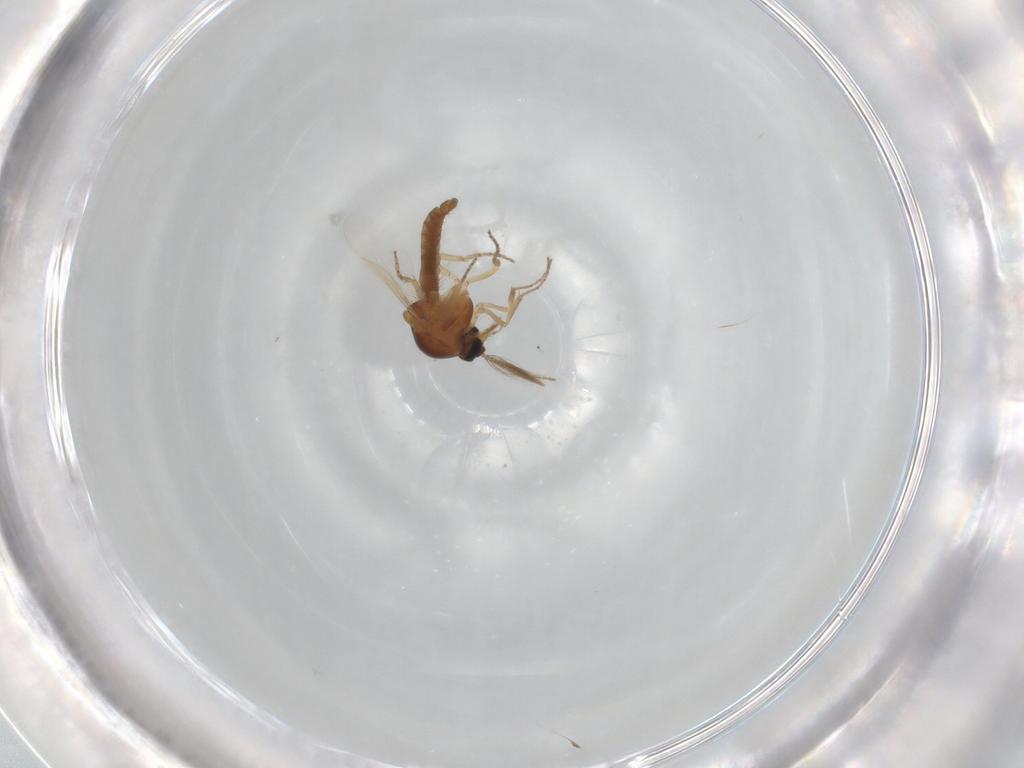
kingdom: Animalia
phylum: Arthropoda
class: Insecta
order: Diptera
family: Ceratopogonidae
